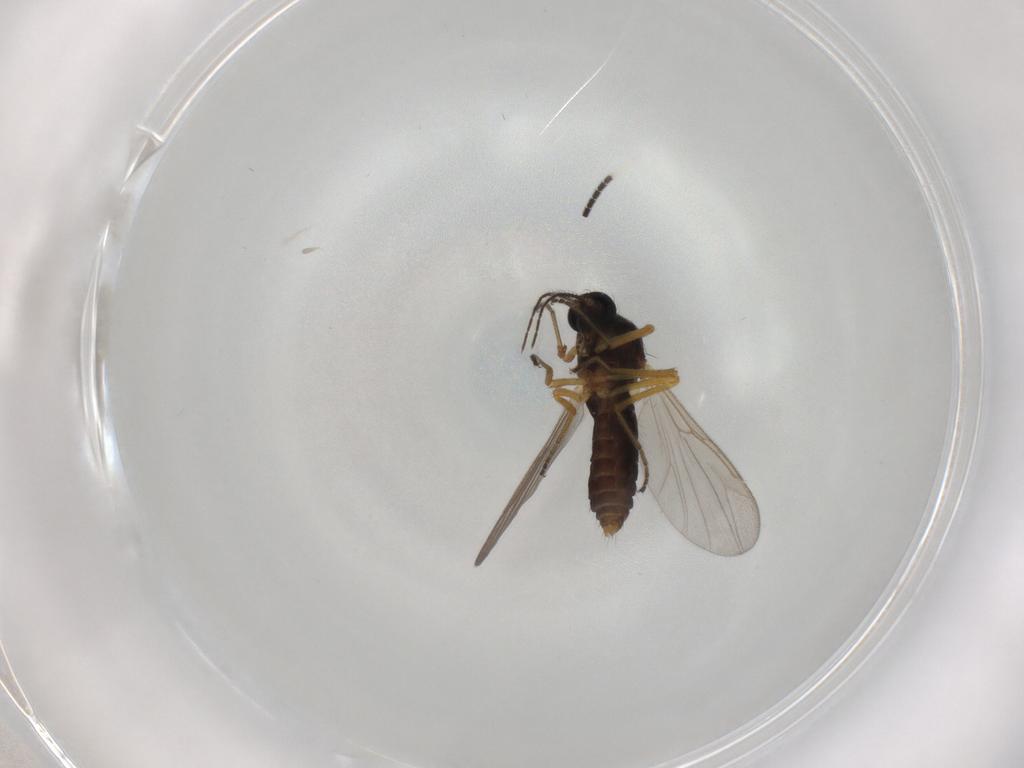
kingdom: Animalia
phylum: Arthropoda
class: Insecta
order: Diptera
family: Ceratopogonidae
